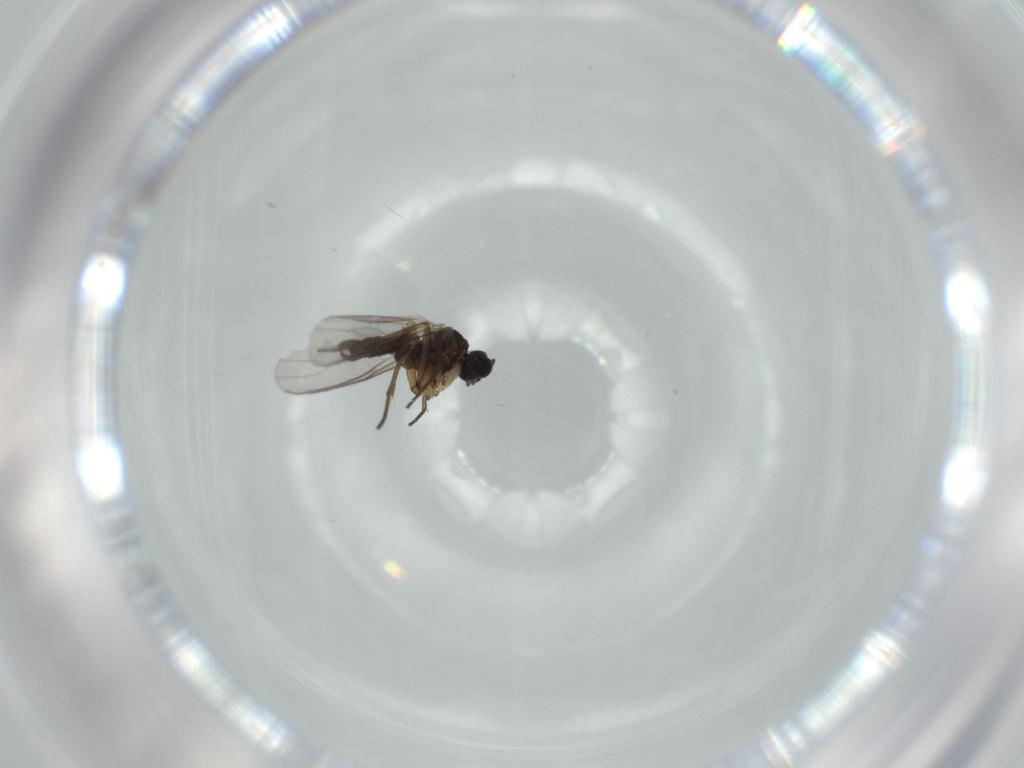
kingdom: Animalia
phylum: Arthropoda
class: Insecta
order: Diptera
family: Sciaridae
